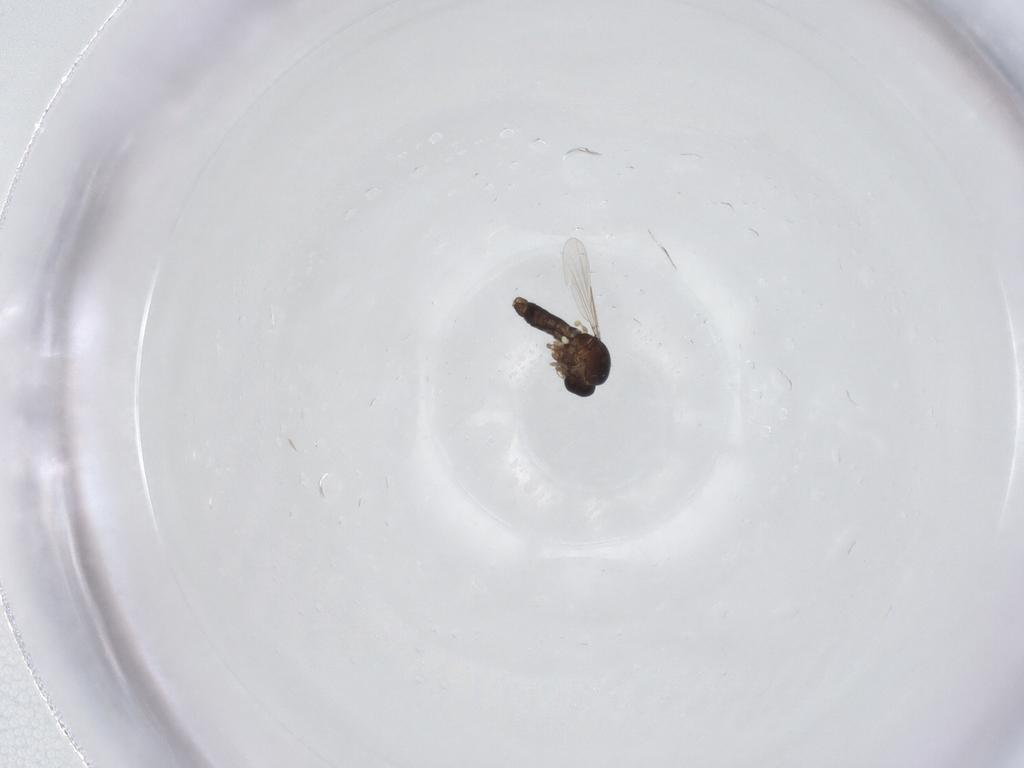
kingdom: Animalia
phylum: Arthropoda
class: Insecta
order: Diptera
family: Ceratopogonidae
